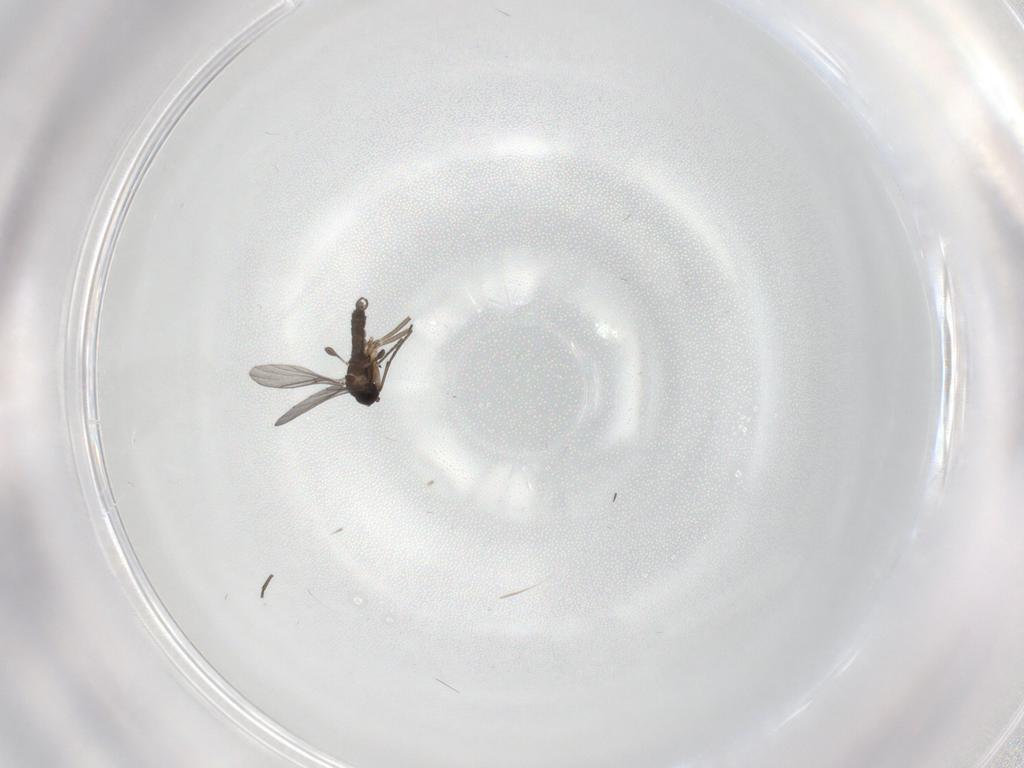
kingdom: Animalia
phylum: Arthropoda
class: Insecta
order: Diptera
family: Sciaridae
